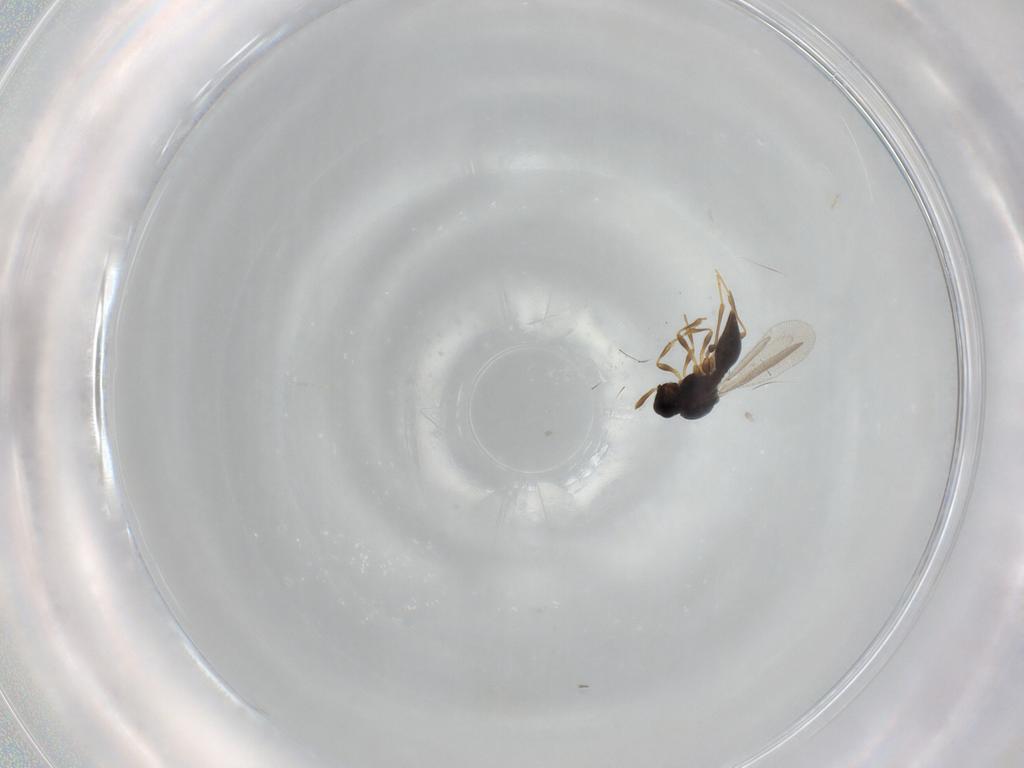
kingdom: Animalia
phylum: Arthropoda
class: Insecta
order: Diptera
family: Mythicomyiidae
